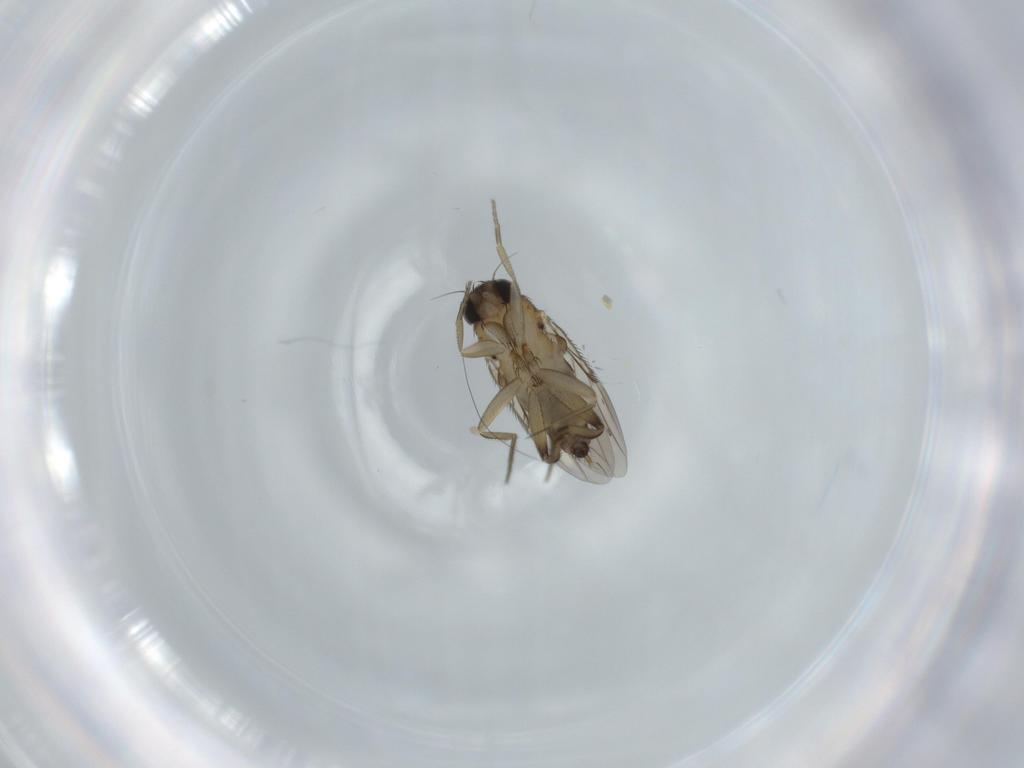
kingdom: Animalia
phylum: Arthropoda
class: Insecta
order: Diptera
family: Phoridae
